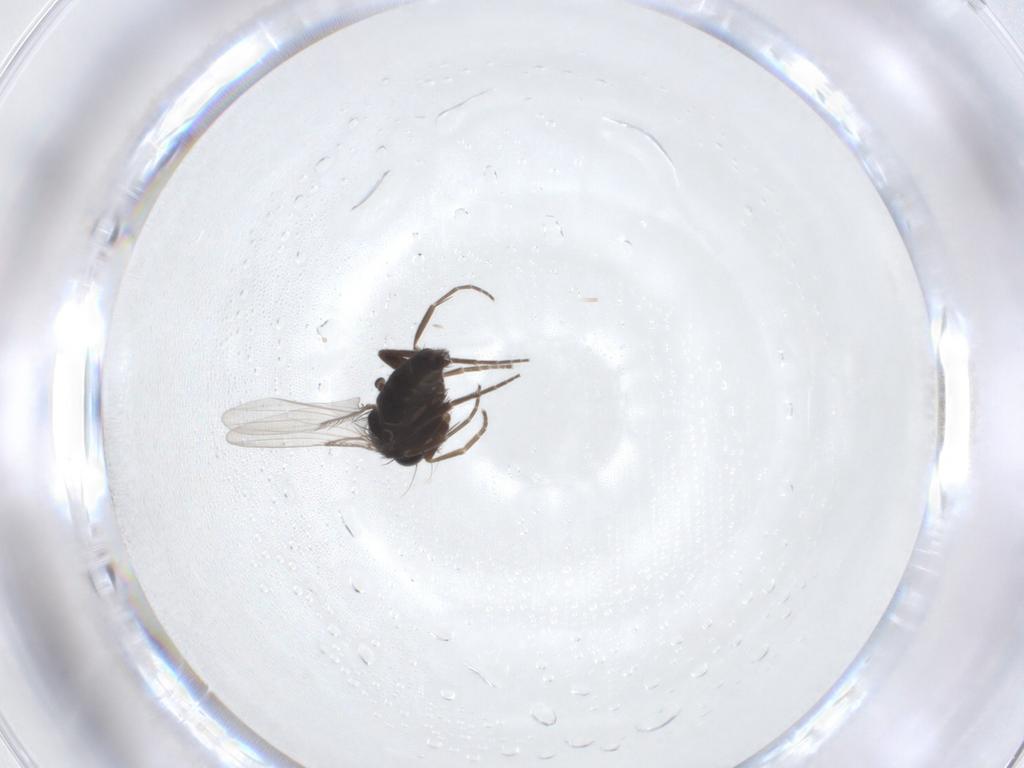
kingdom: Animalia
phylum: Arthropoda
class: Insecta
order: Diptera
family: Phoridae
